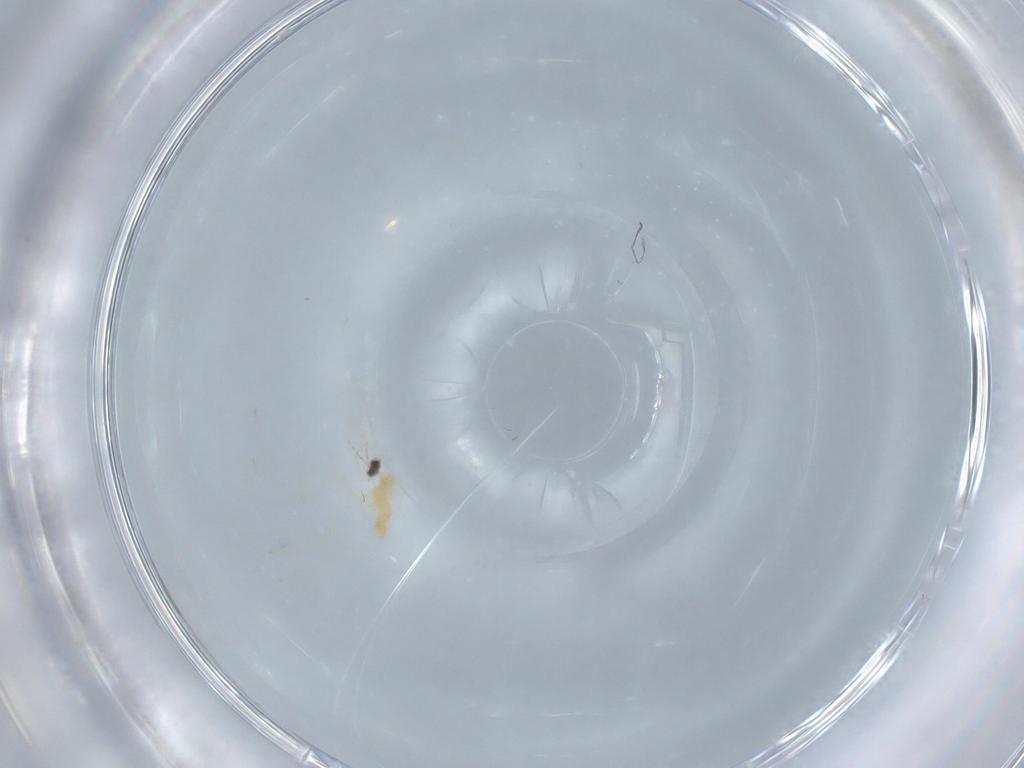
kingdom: Animalia
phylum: Arthropoda
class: Insecta
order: Diptera
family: Cecidomyiidae
